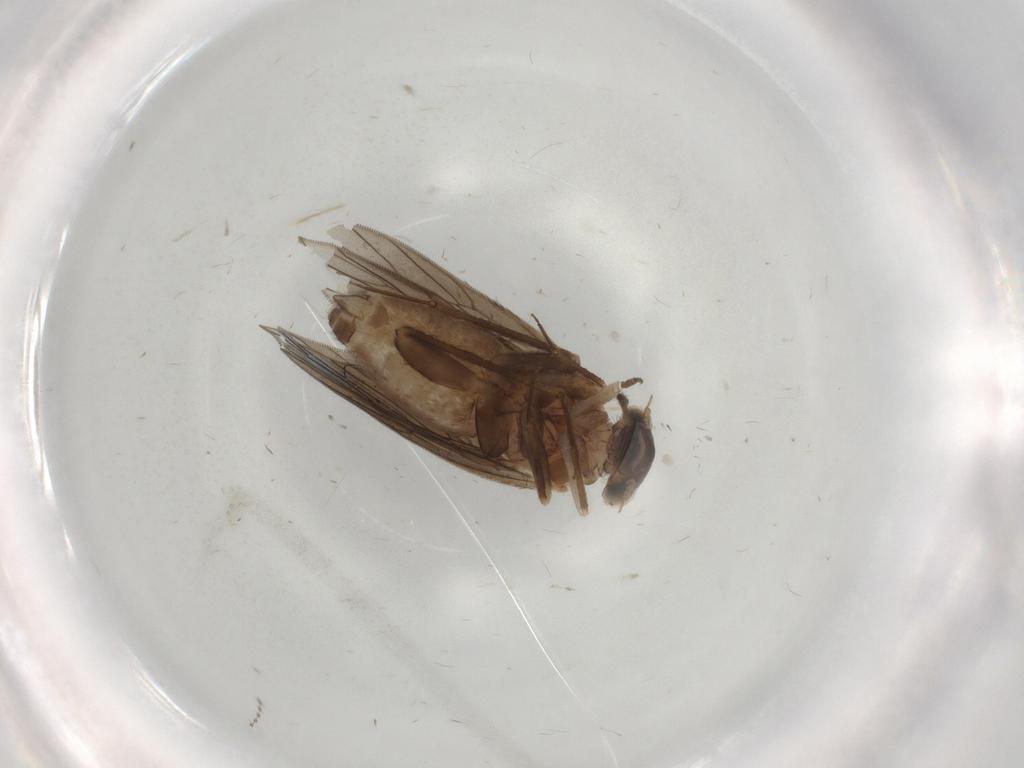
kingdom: Animalia
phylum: Arthropoda
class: Insecta
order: Psocodea
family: Lepidopsocidae
